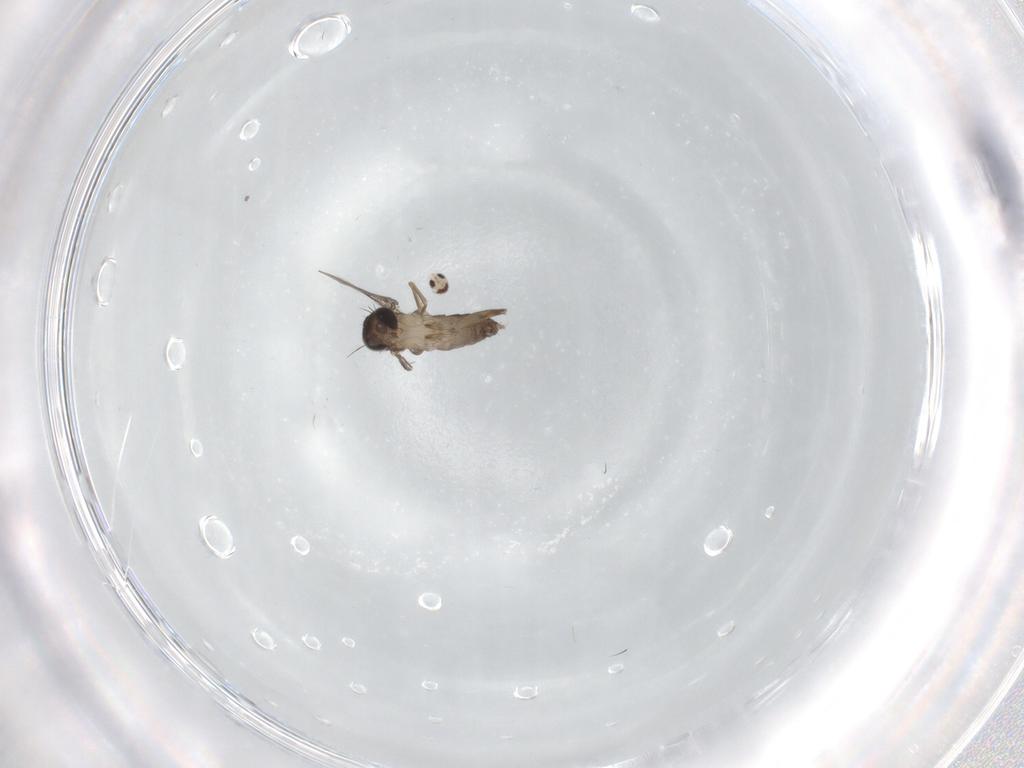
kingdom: Animalia
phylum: Arthropoda
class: Insecta
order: Diptera
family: Phoridae
